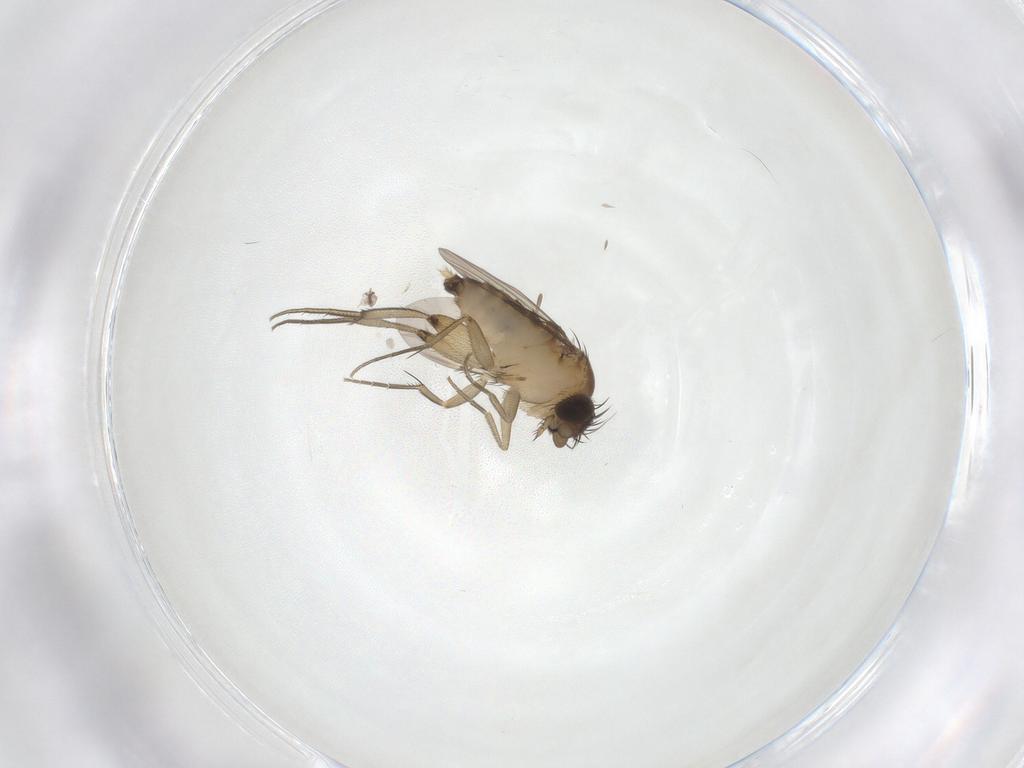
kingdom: Animalia
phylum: Arthropoda
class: Insecta
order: Diptera
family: Phoridae
